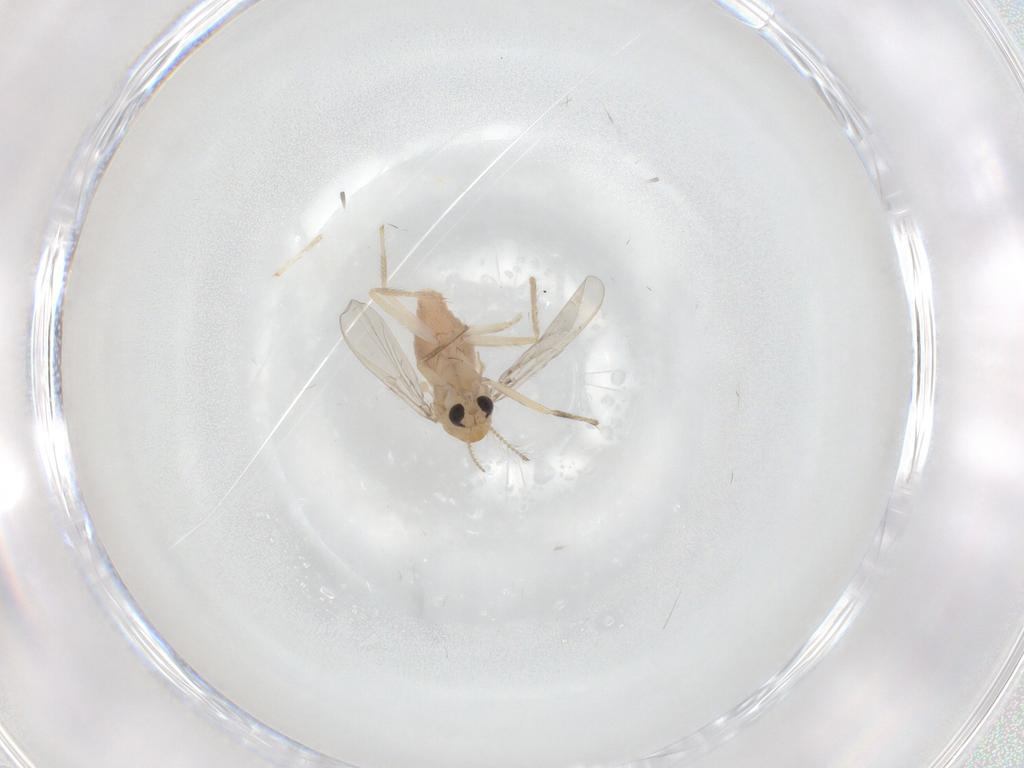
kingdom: Animalia
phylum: Arthropoda
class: Insecta
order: Diptera
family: Chironomidae
